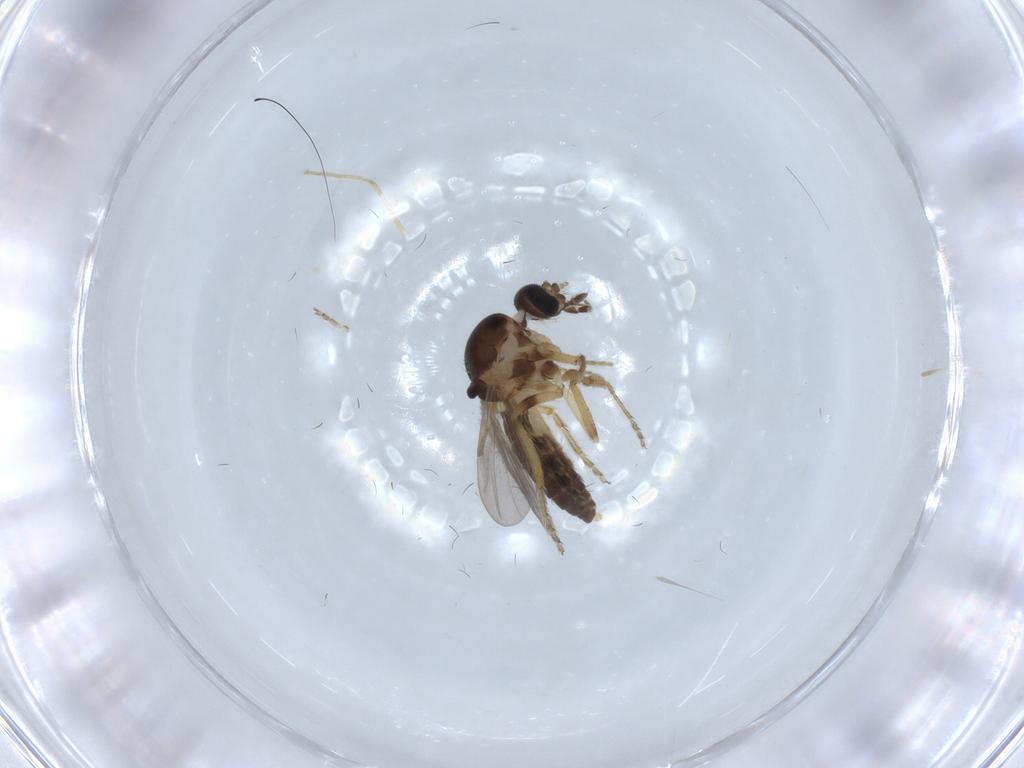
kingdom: Animalia
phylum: Arthropoda
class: Insecta
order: Diptera
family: Ceratopogonidae
